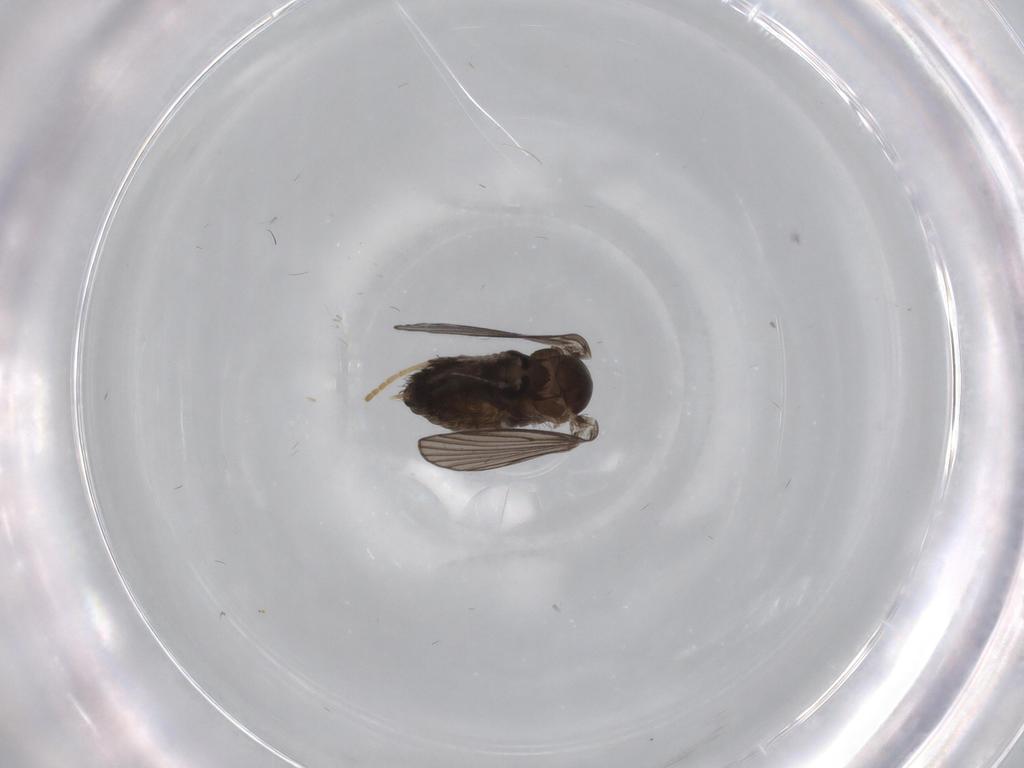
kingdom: Animalia
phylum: Arthropoda
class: Insecta
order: Diptera
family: Psychodidae
